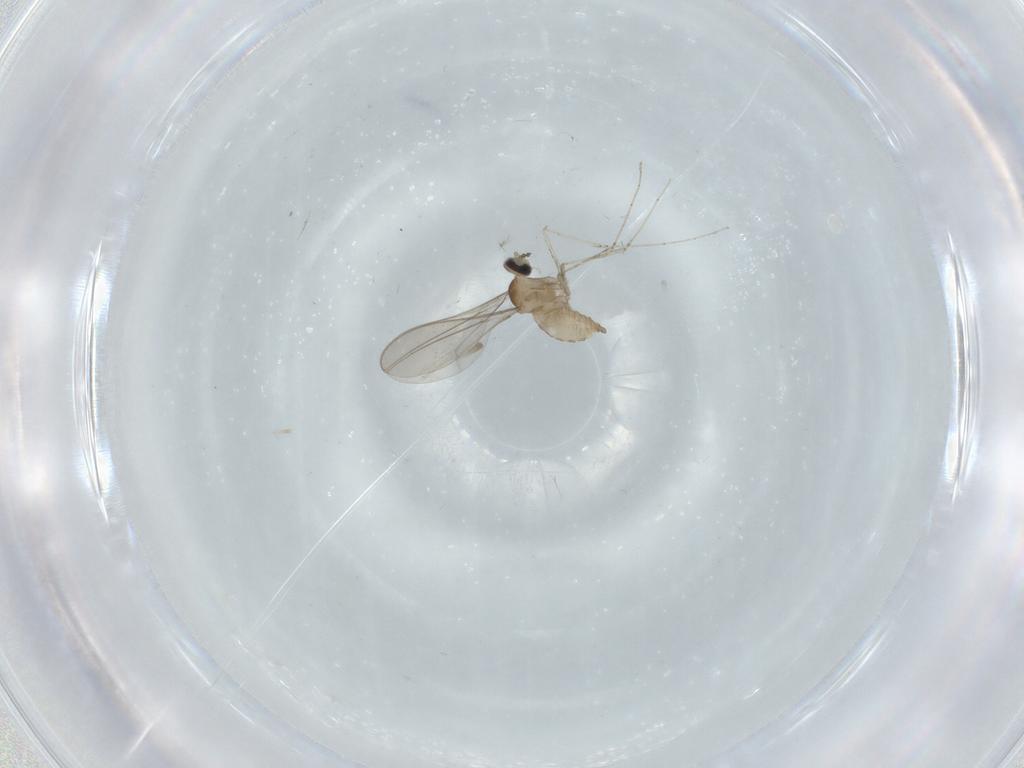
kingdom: Animalia
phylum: Arthropoda
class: Insecta
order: Diptera
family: Cecidomyiidae
